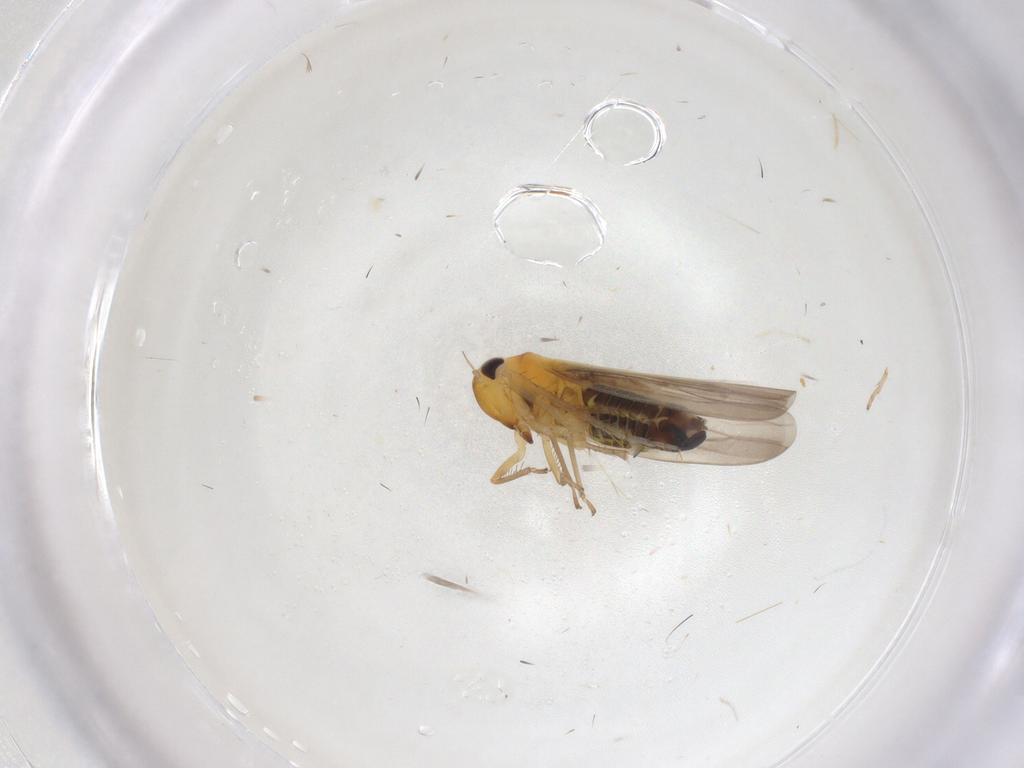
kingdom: Animalia
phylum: Arthropoda
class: Insecta
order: Hemiptera
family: Cicadellidae
